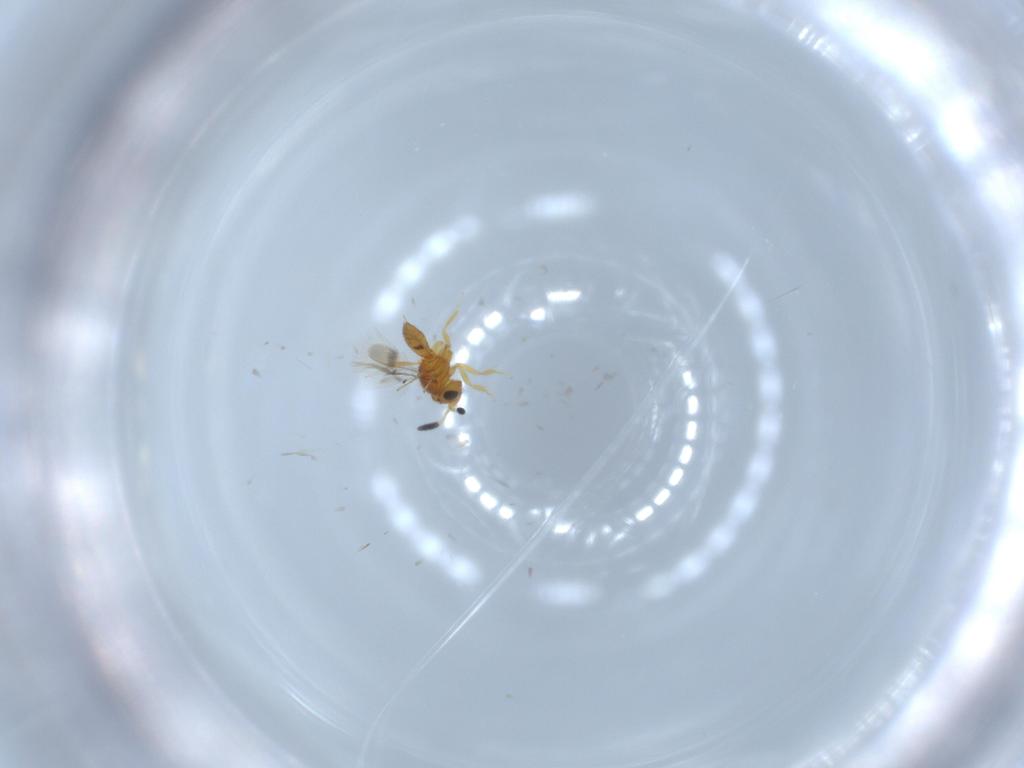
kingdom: Animalia
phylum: Arthropoda
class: Insecta
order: Hymenoptera
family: Scelionidae
